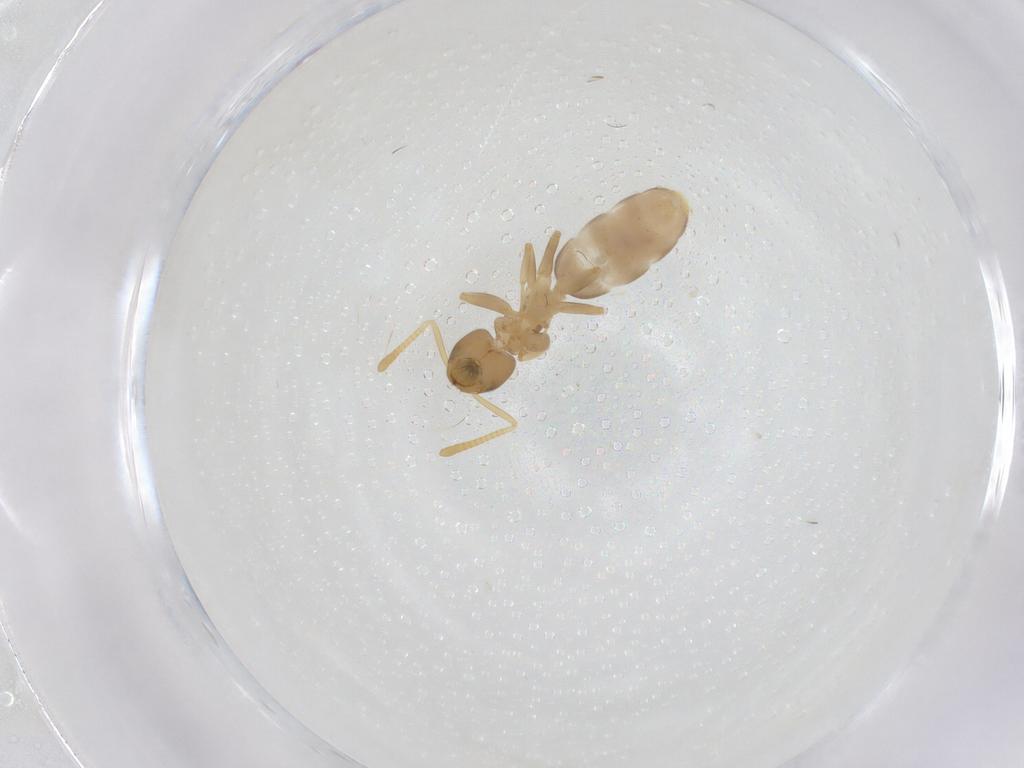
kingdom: Animalia
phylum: Arthropoda
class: Insecta
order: Hymenoptera
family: Formicidae
